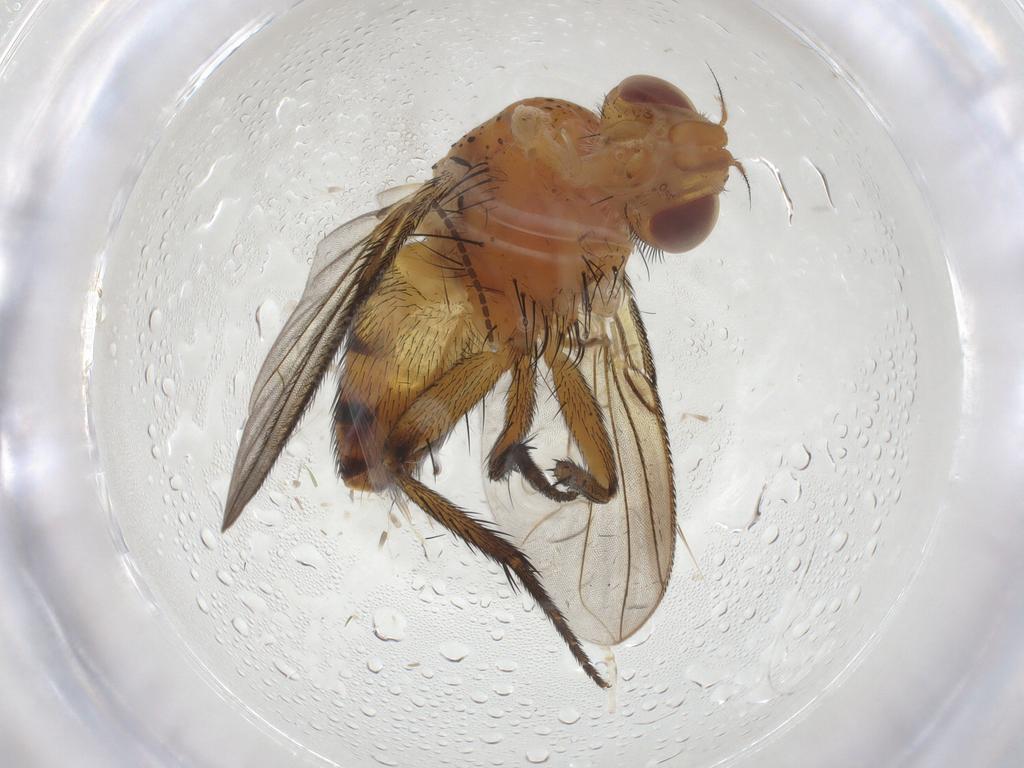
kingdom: Animalia
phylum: Arthropoda
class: Insecta
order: Diptera
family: Tachinidae
